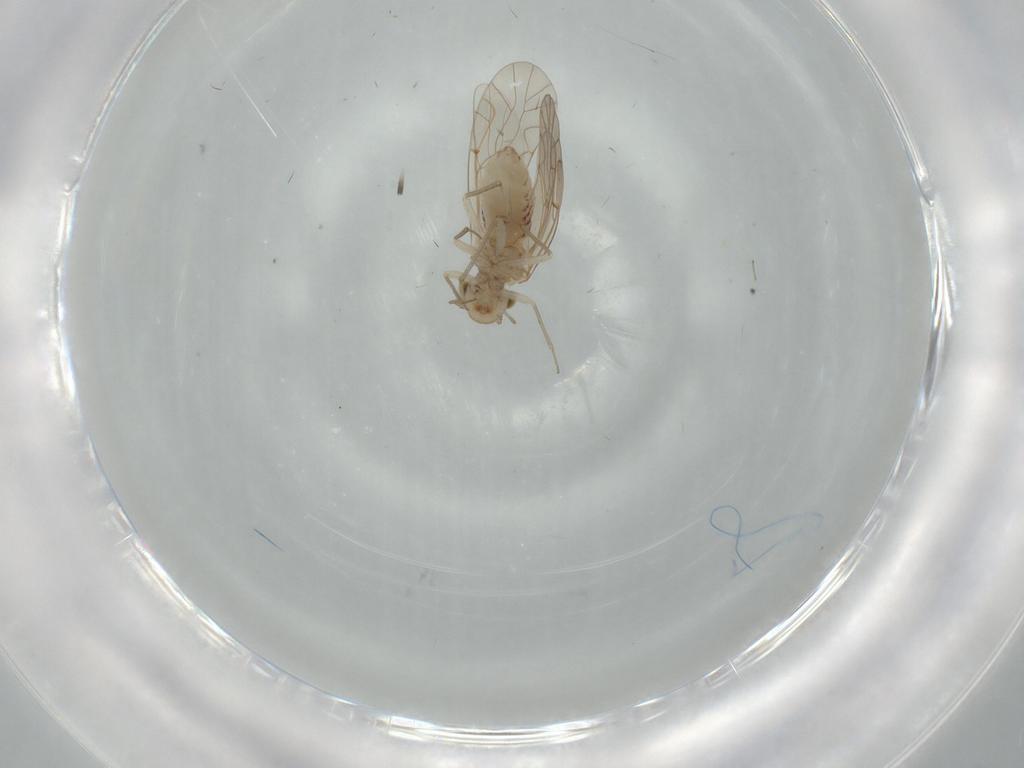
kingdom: Animalia
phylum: Arthropoda
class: Insecta
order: Psocodea
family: Lachesillidae
